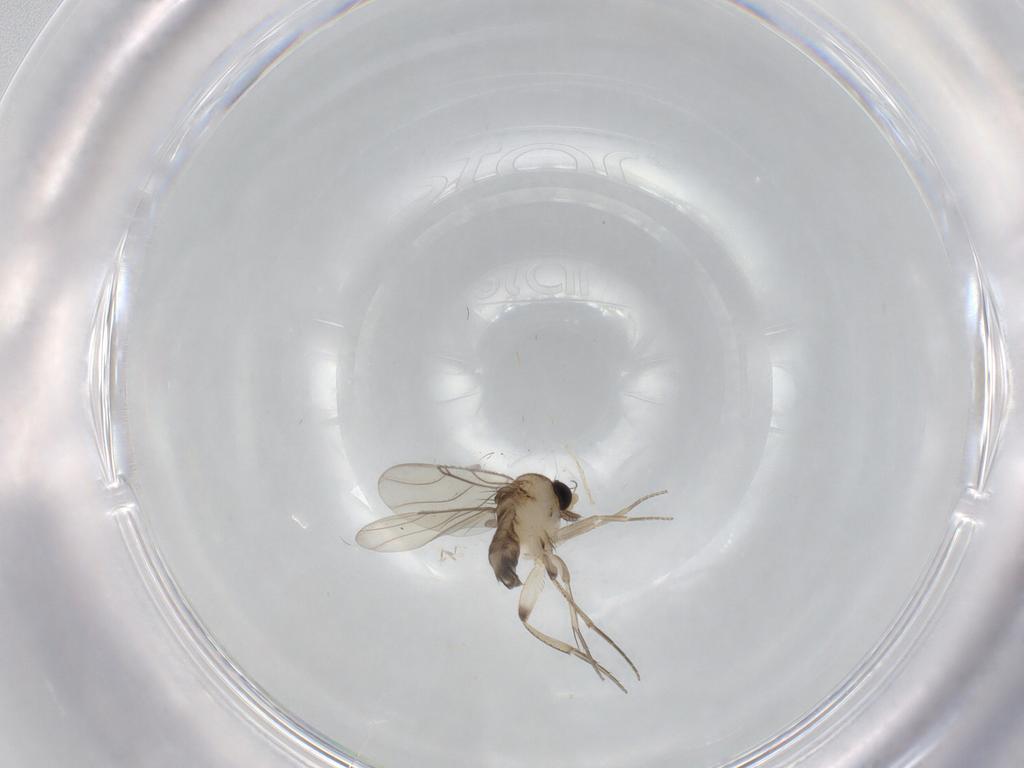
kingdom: Animalia
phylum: Arthropoda
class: Insecta
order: Diptera
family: Phoridae
